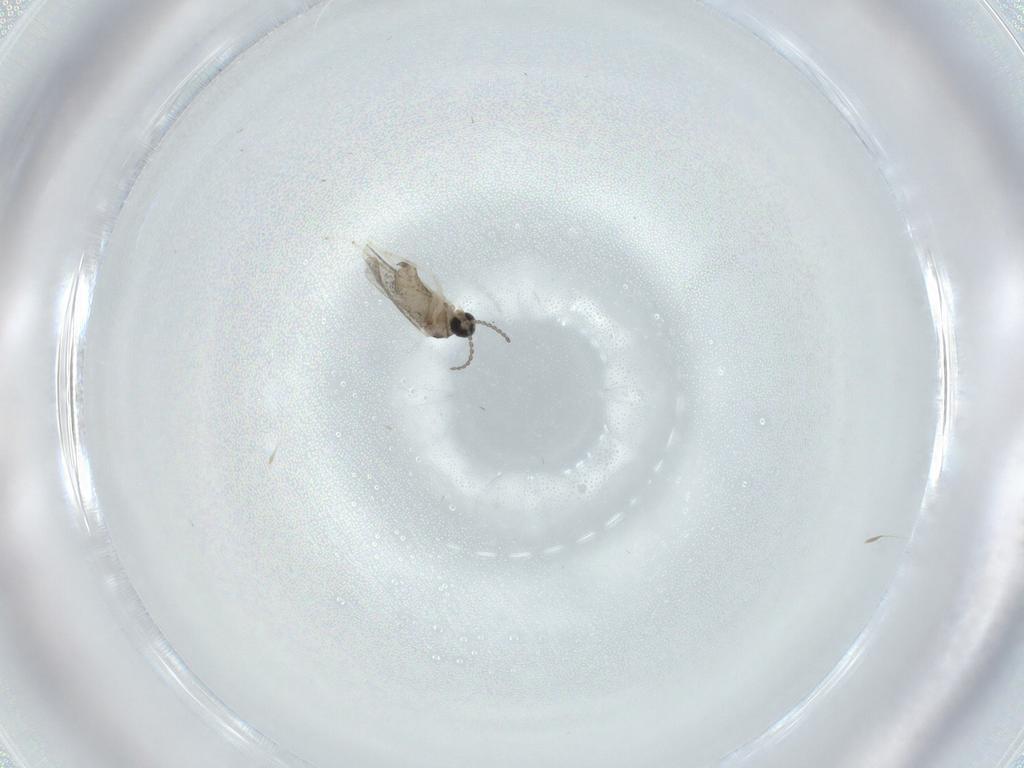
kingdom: Animalia
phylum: Arthropoda
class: Insecta
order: Diptera
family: Cecidomyiidae
